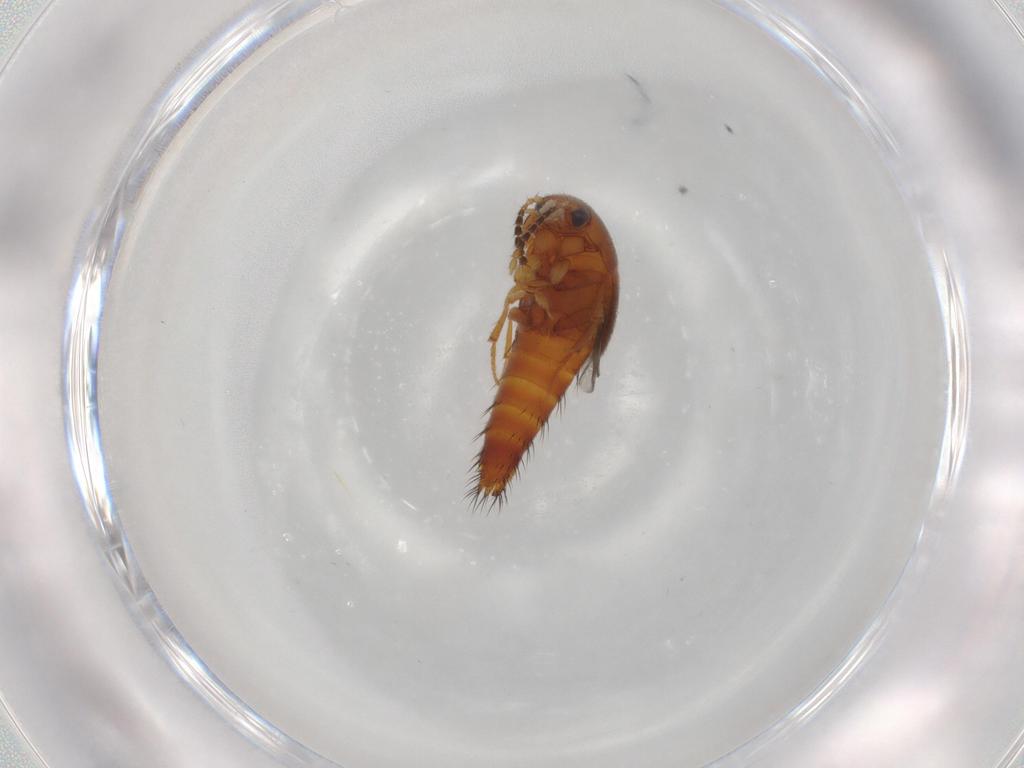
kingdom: Animalia
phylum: Arthropoda
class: Insecta
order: Coleoptera
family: Staphylinidae
